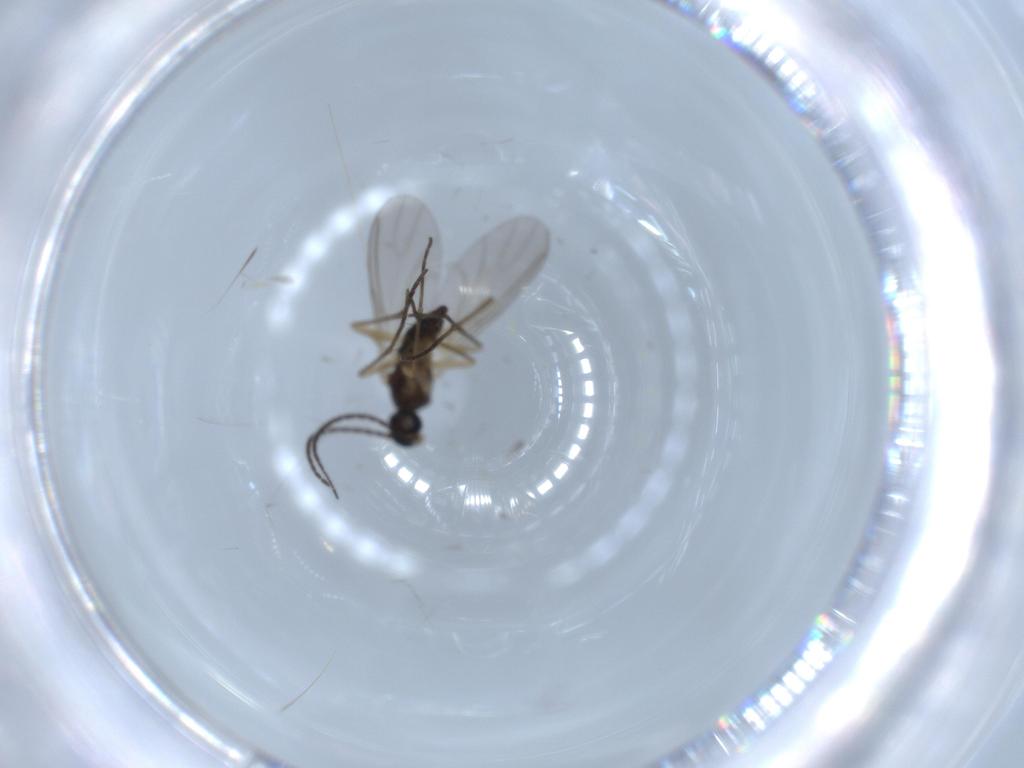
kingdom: Animalia
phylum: Arthropoda
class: Insecta
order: Diptera
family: Sciaridae
